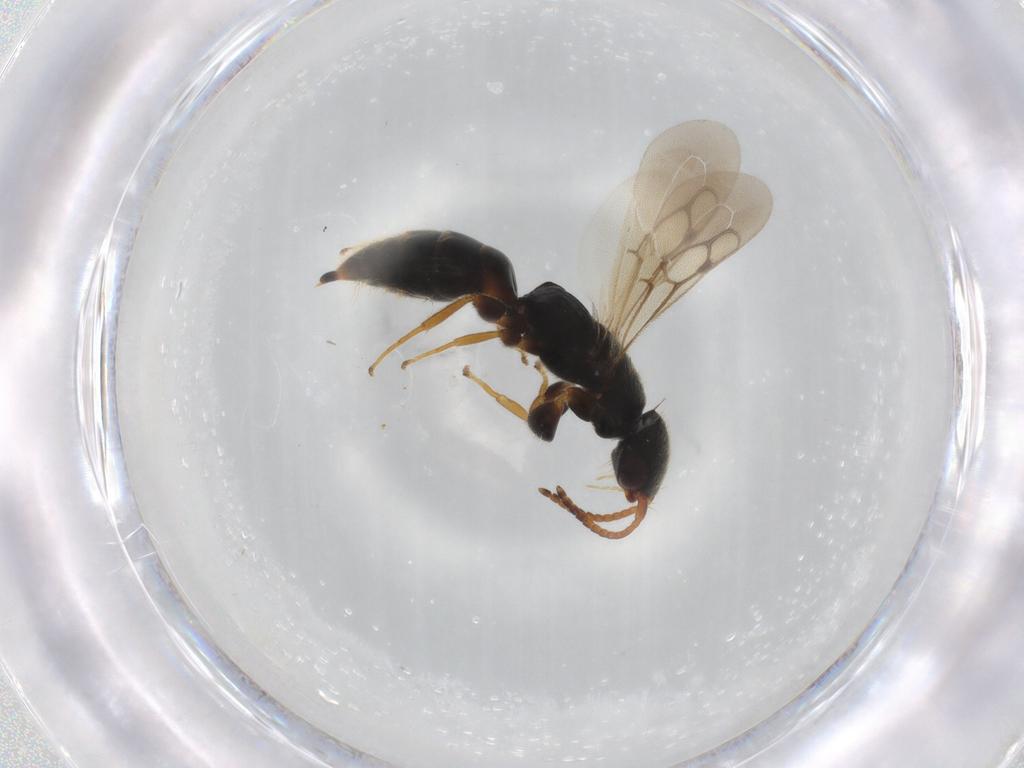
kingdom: Animalia
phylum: Arthropoda
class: Insecta
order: Hymenoptera
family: Bethylidae
